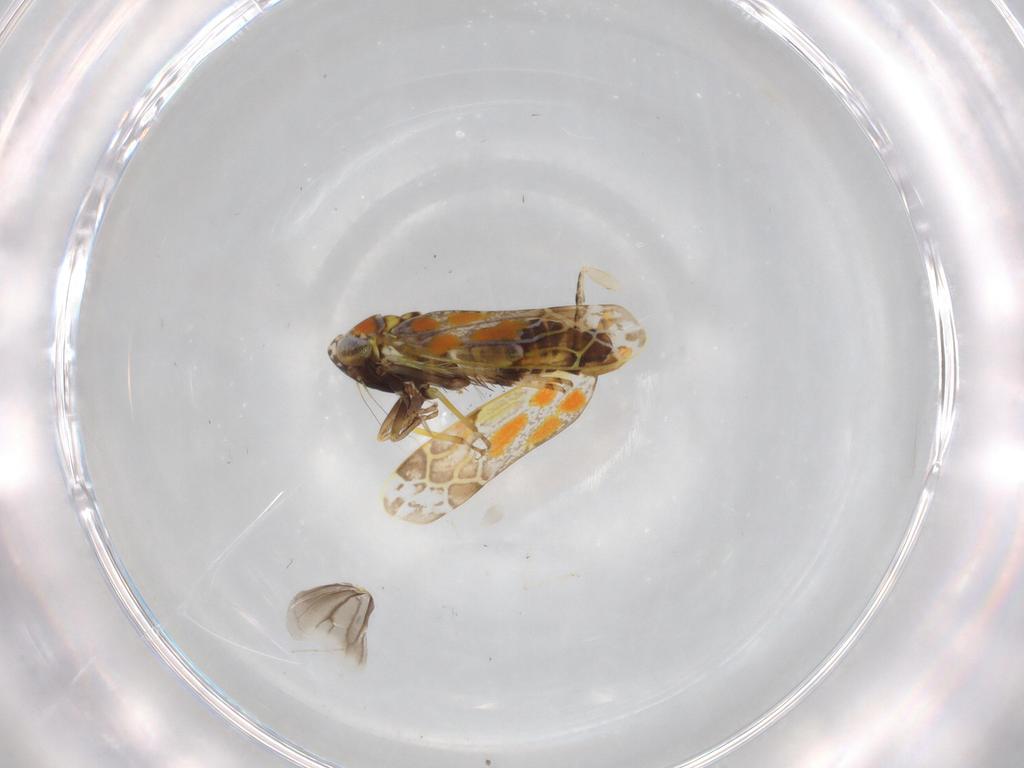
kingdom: Animalia
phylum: Arthropoda
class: Insecta
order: Hemiptera
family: Cicadellidae
